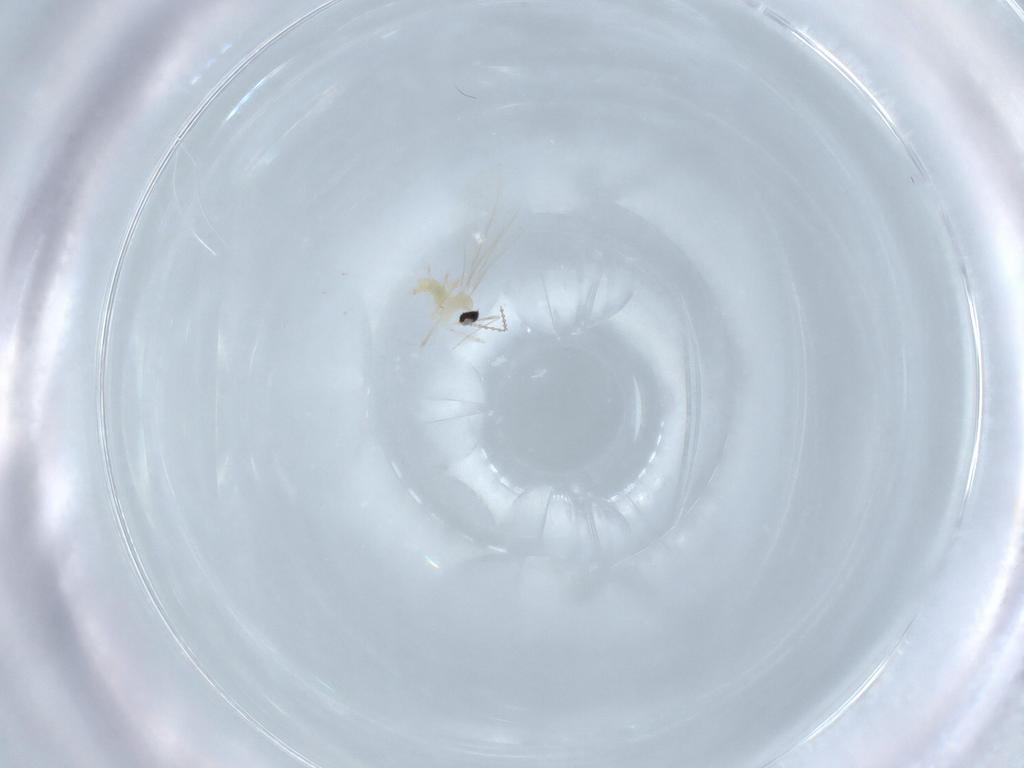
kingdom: Animalia
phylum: Arthropoda
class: Insecta
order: Diptera
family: Cecidomyiidae
